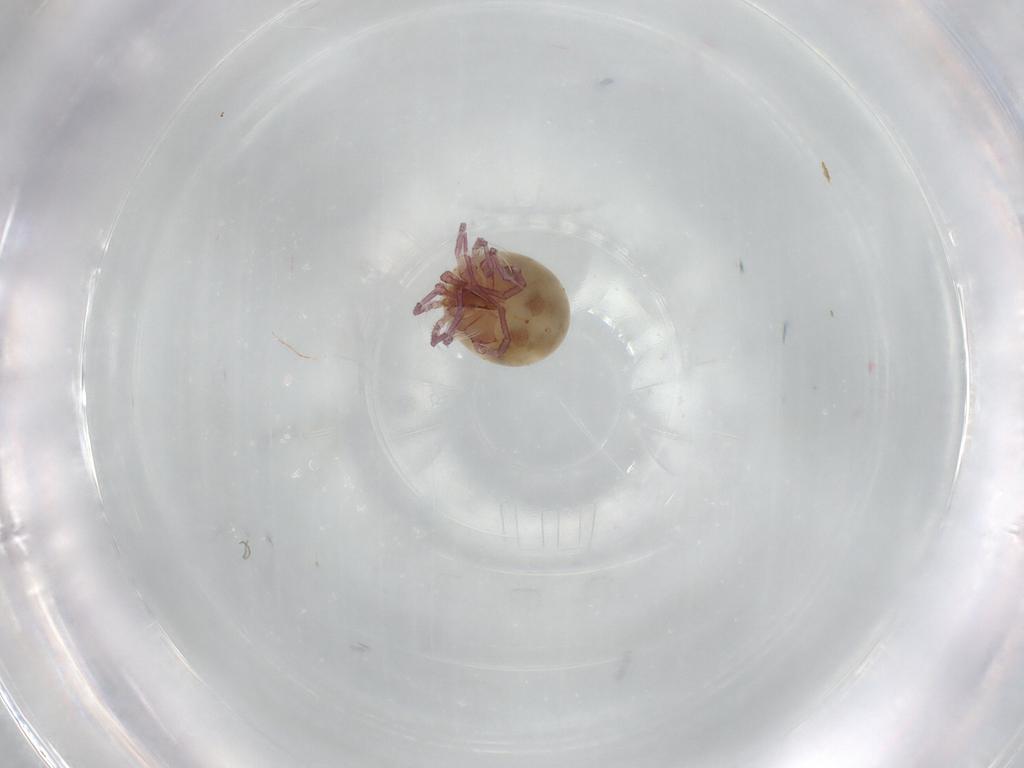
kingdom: Animalia
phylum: Arthropoda
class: Arachnida
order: Trombidiformes
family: Pionidae
